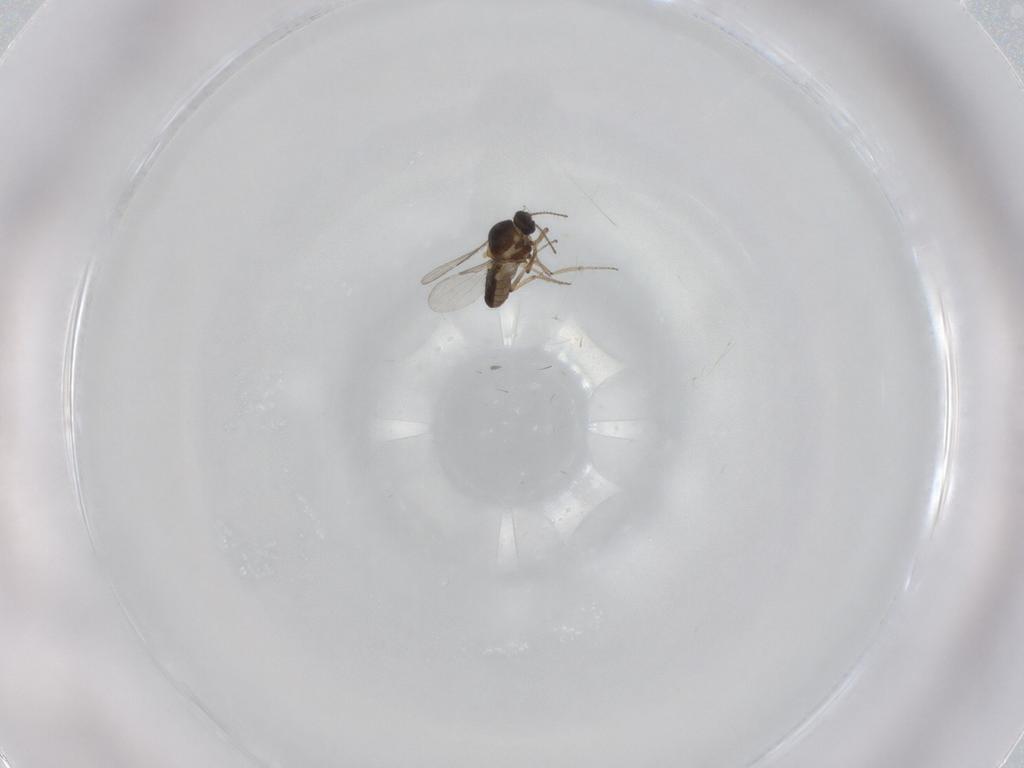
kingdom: Animalia
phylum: Arthropoda
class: Insecta
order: Diptera
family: Ceratopogonidae
